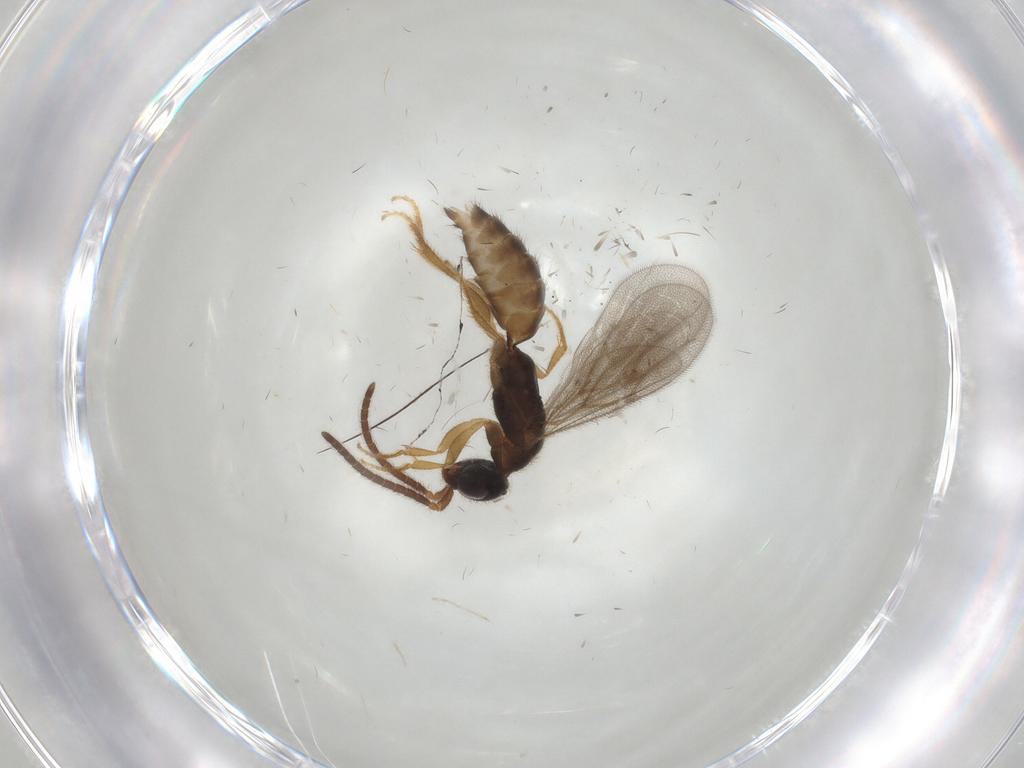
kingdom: Animalia
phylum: Arthropoda
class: Insecta
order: Hymenoptera
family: Bethylidae
